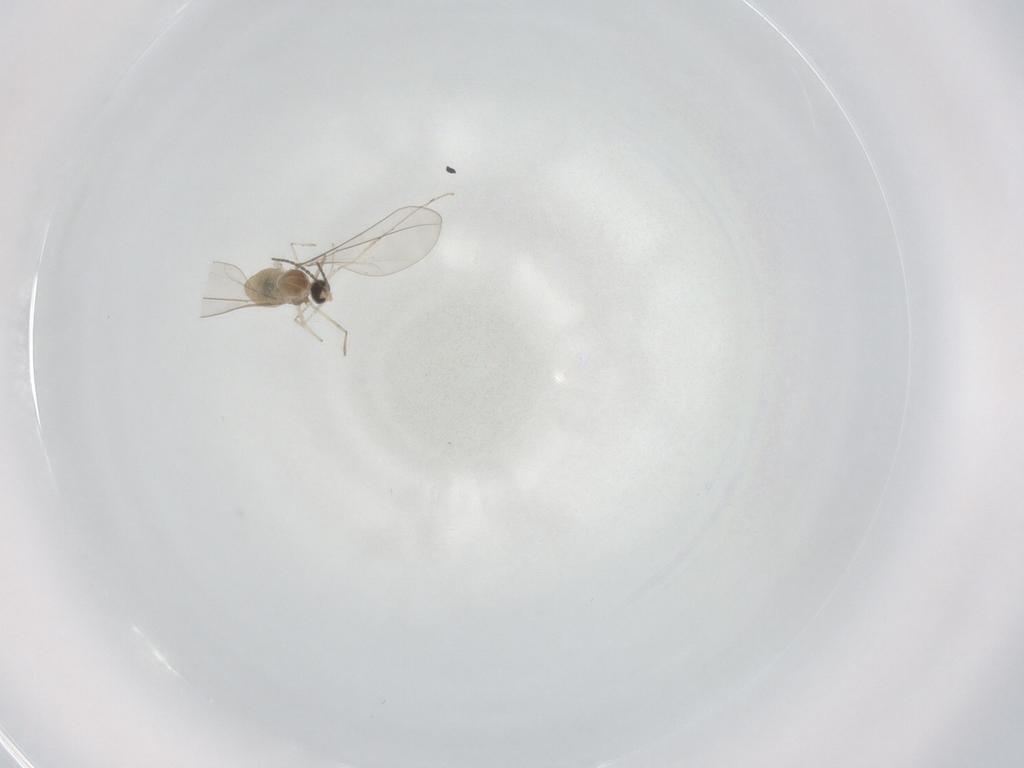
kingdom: Animalia
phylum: Arthropoda
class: Insecta
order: Diptera
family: Cecidomyiidae
